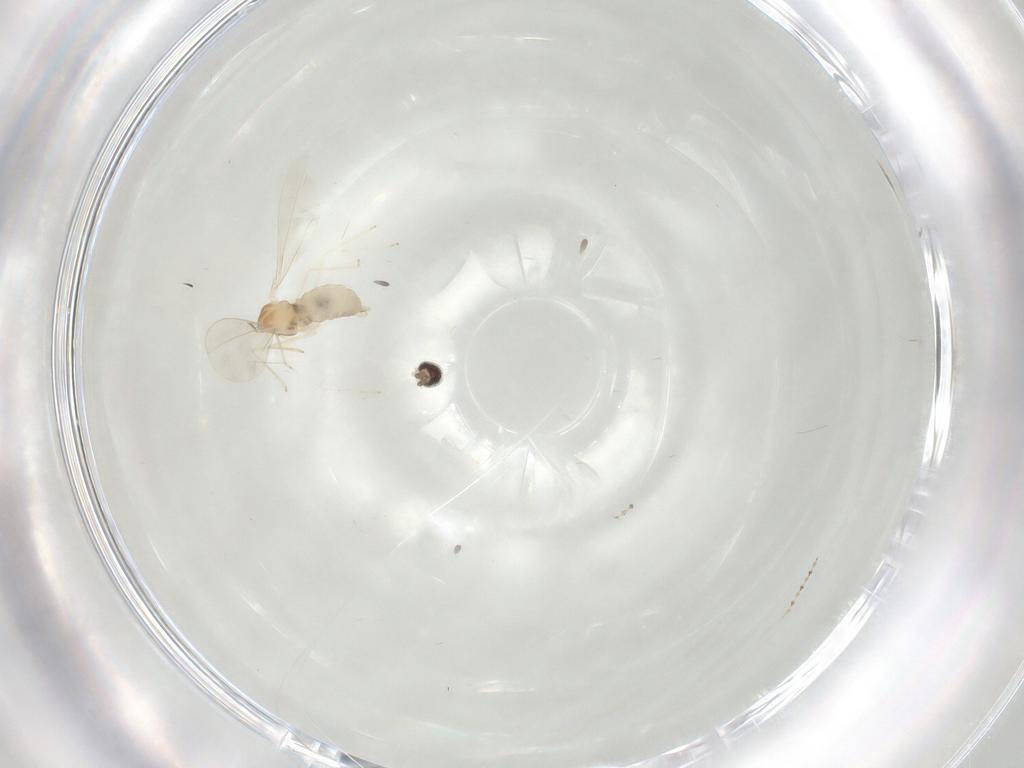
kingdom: Animalia
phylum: Arthropoda
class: Insecta
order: Diptera
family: Cecidomyiidae
